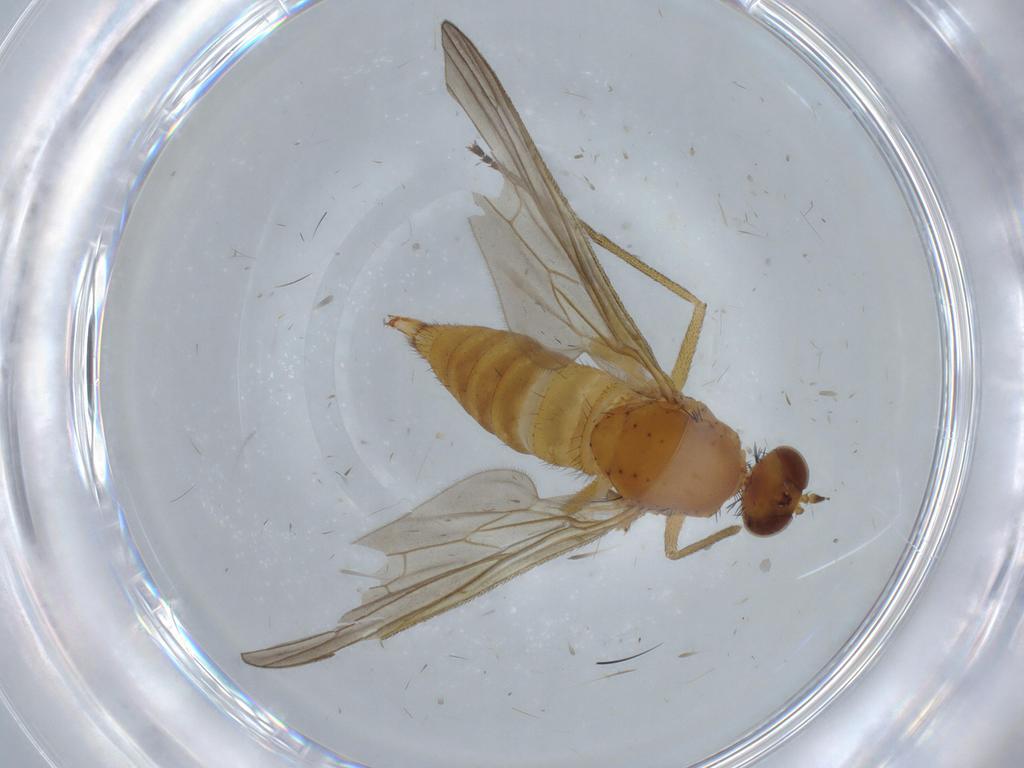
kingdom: Animalia
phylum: Arthropoda
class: Insecta
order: Diptera
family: Brachystomatidae
